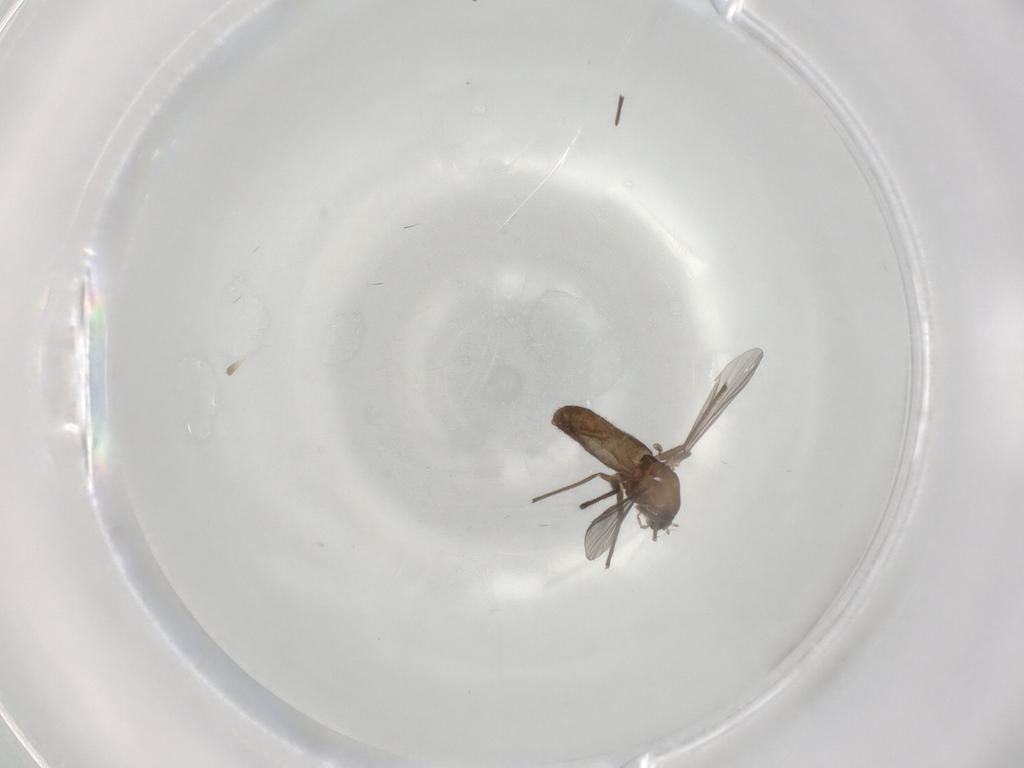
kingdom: Animalia
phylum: Arthropoda
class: Insecta
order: Diptera
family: Chironomidae
